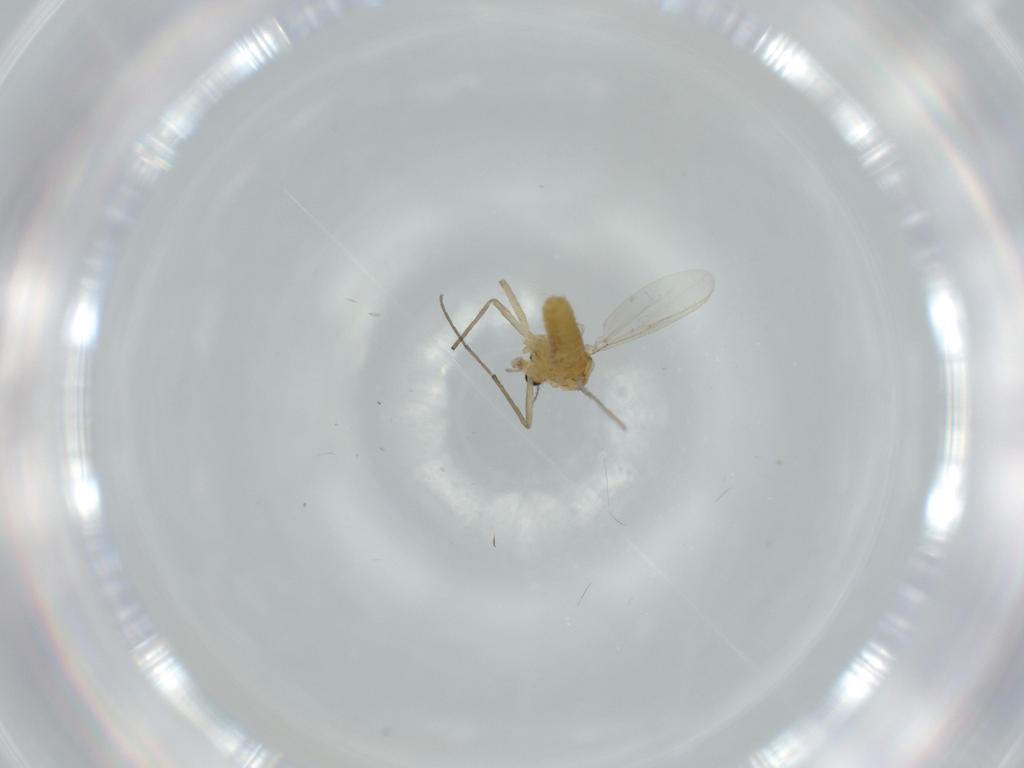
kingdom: Animalia
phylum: Arthropoda
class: Insecta
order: Diptera
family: Chironomidae
